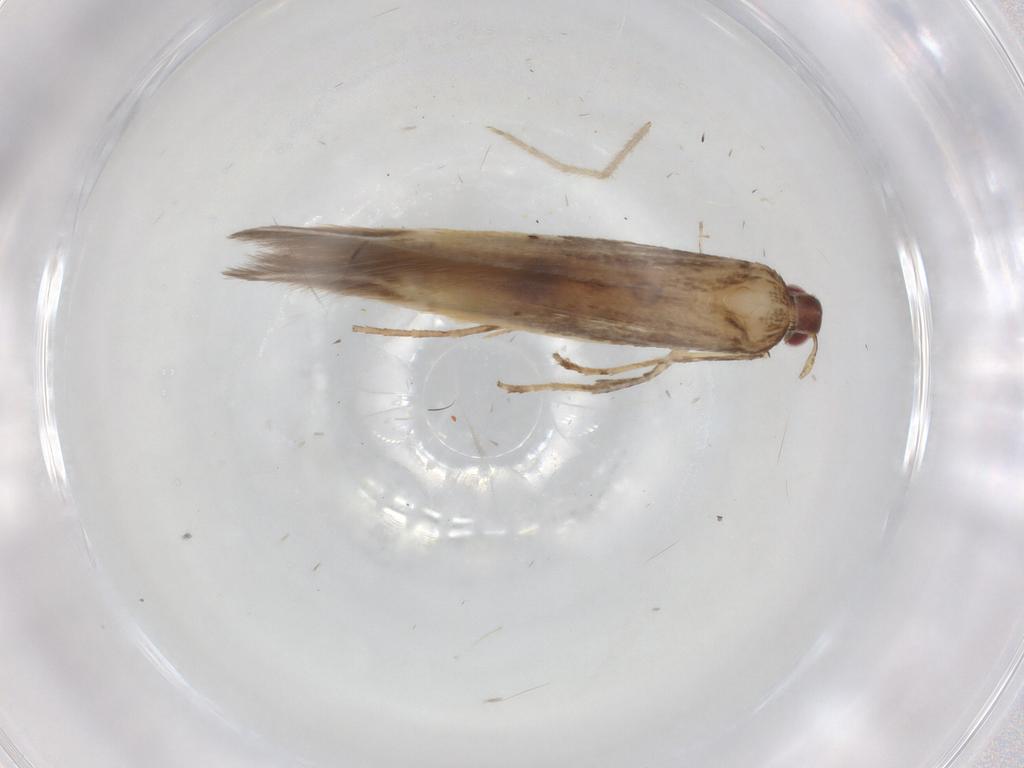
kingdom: Animalia
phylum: Arthropoda
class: Insecta
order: Lepidoptera
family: Cosmopterigidae
